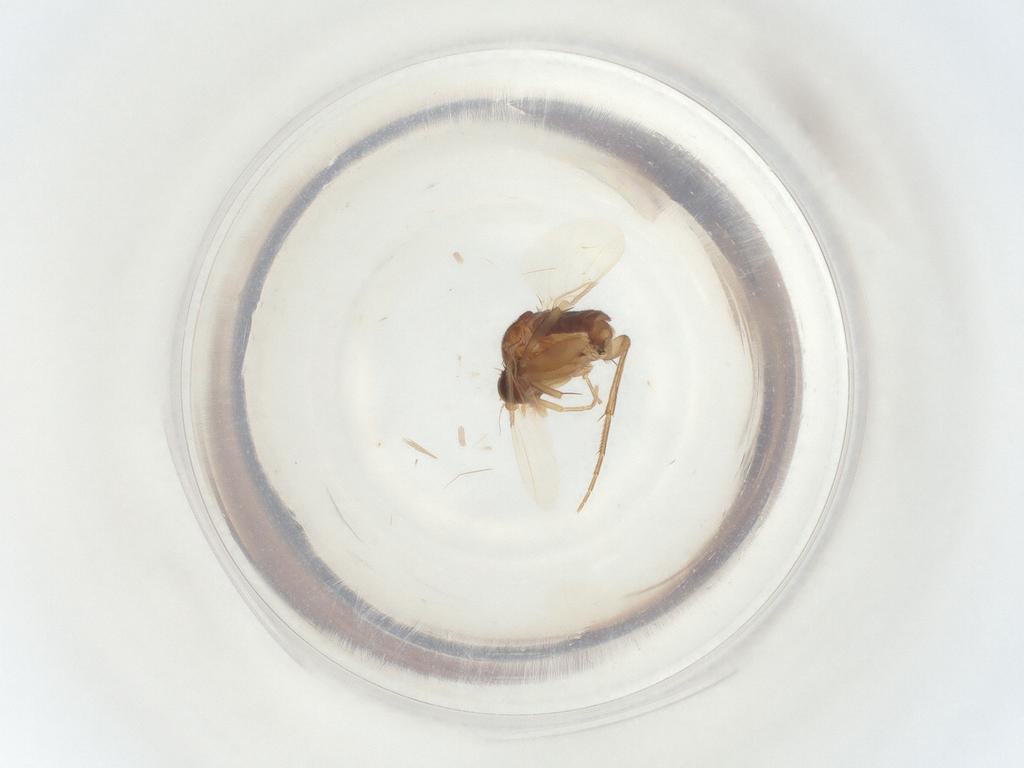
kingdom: Animalia
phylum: Arthropoda
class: Insecta
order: Diptera
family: Phoridae
